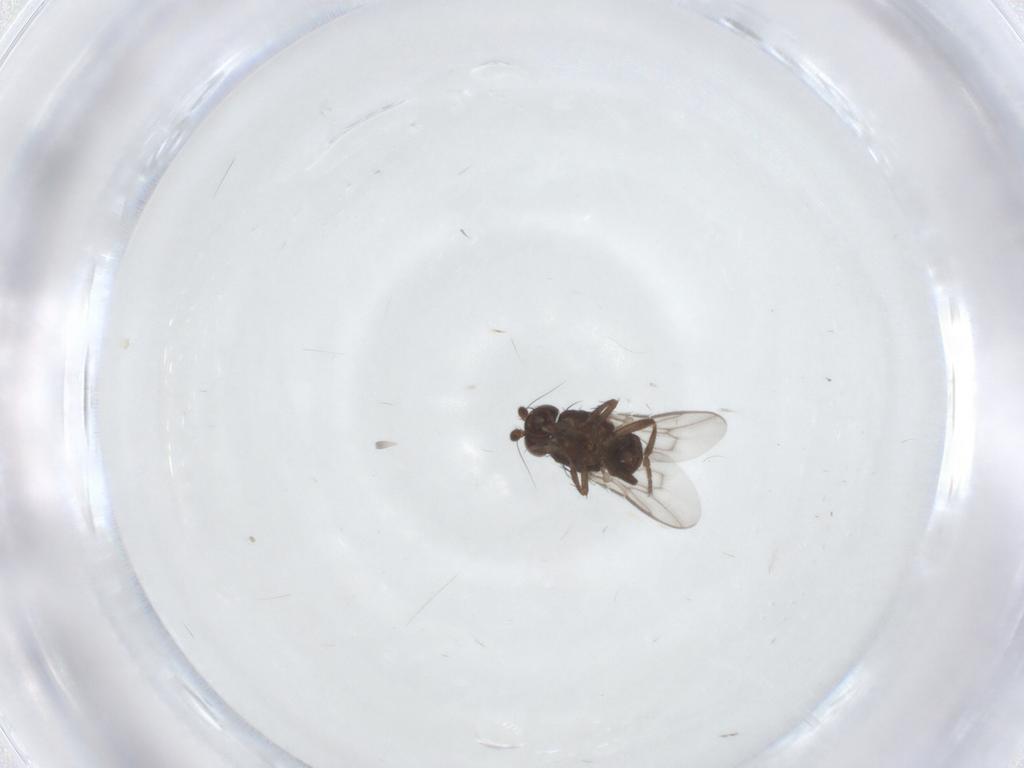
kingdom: Animalia
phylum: Arthropoda
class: Insecta
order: Diptera
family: Sphaeroceridae
